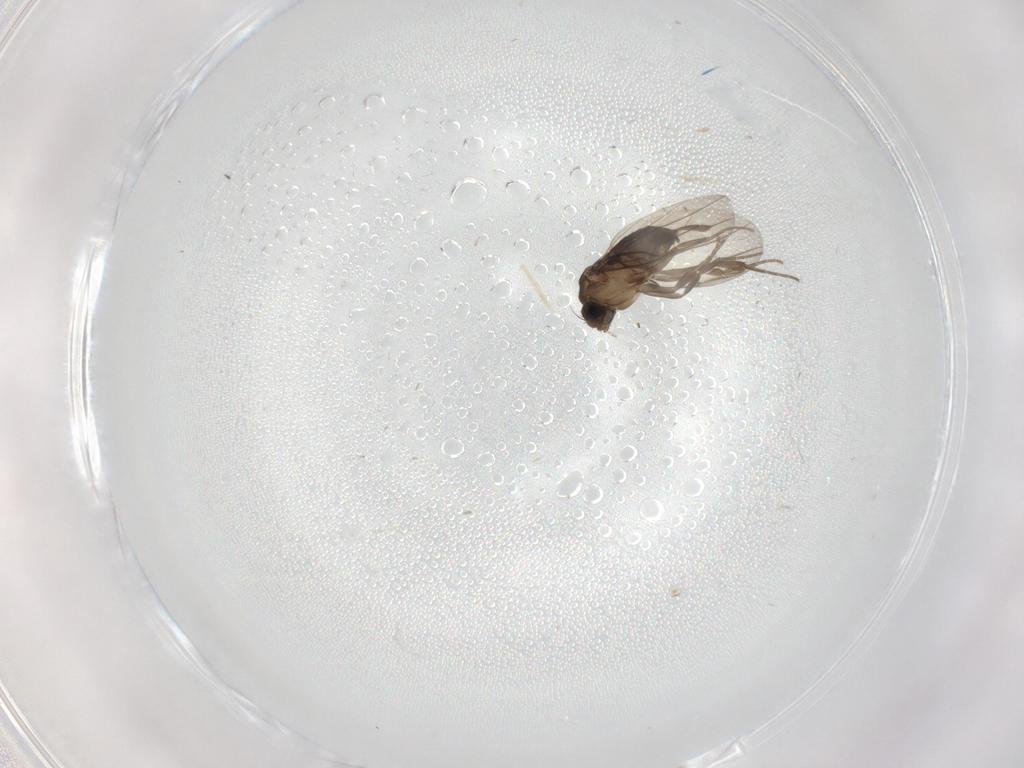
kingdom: Animalia
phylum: Arthropoda
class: Insecta
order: Diptera
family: Phoridae
